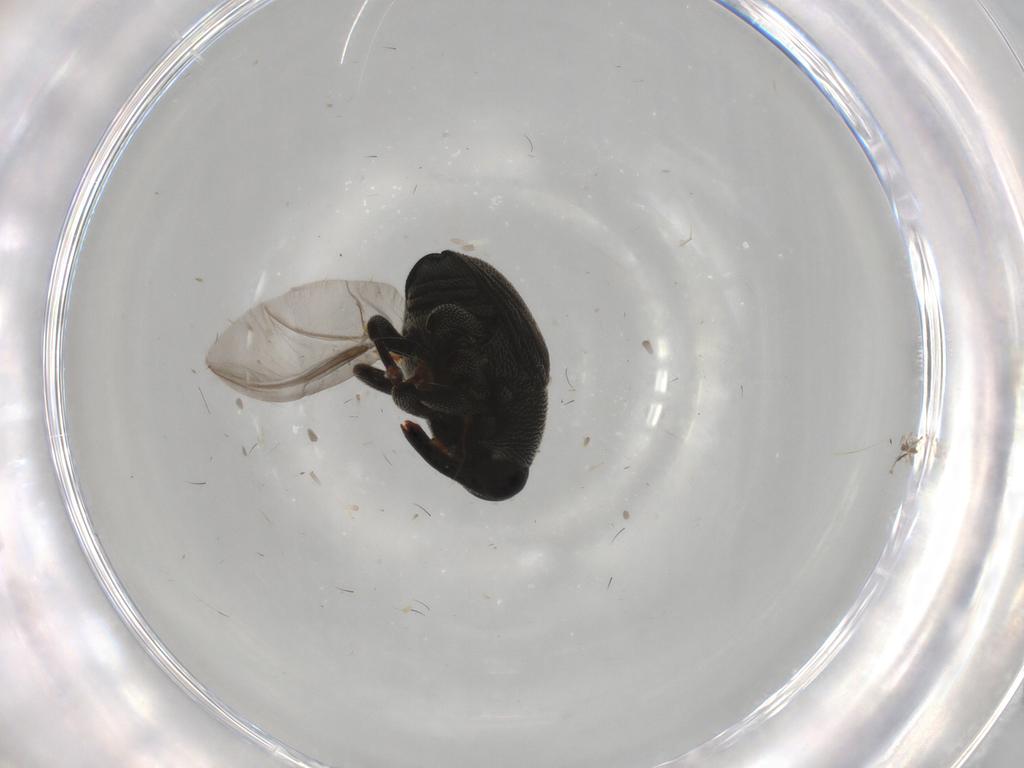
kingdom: Animalia
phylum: Arthropoda
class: Insecta
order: Coleoptera
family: Curculionidae
